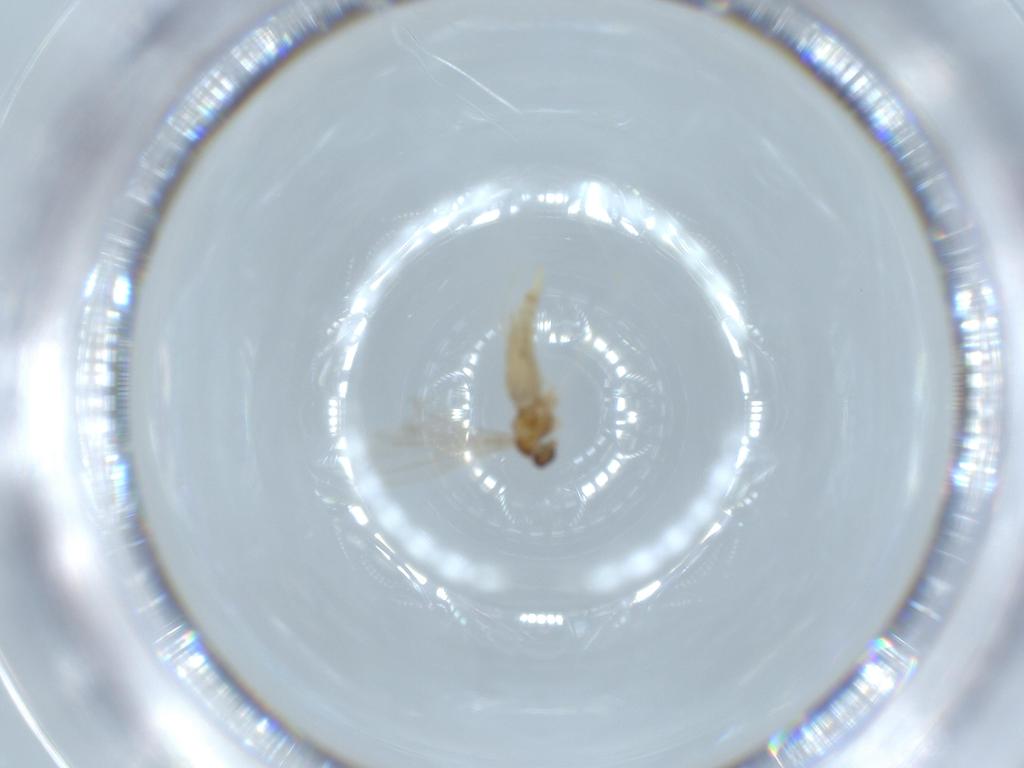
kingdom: Animalia
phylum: Arthropoda
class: Insecta
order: Diptera
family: Cecidomyiidae
